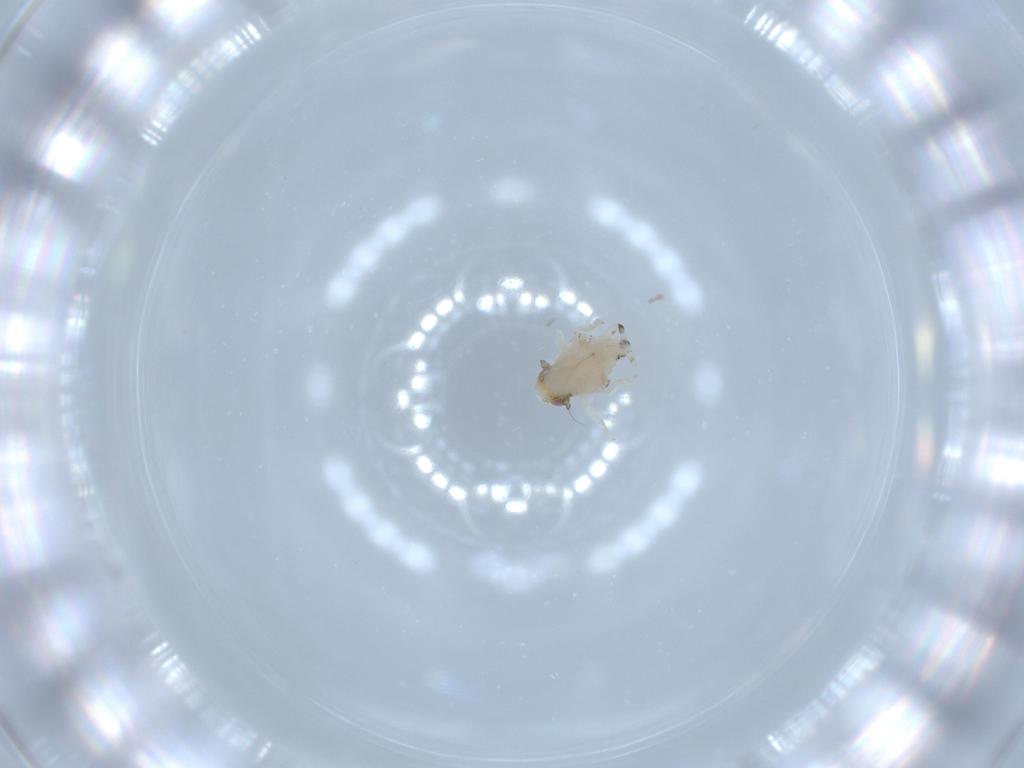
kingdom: Animalia
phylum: Arthropoda
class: Insecta
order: Hemiptera
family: Nogodinidae
